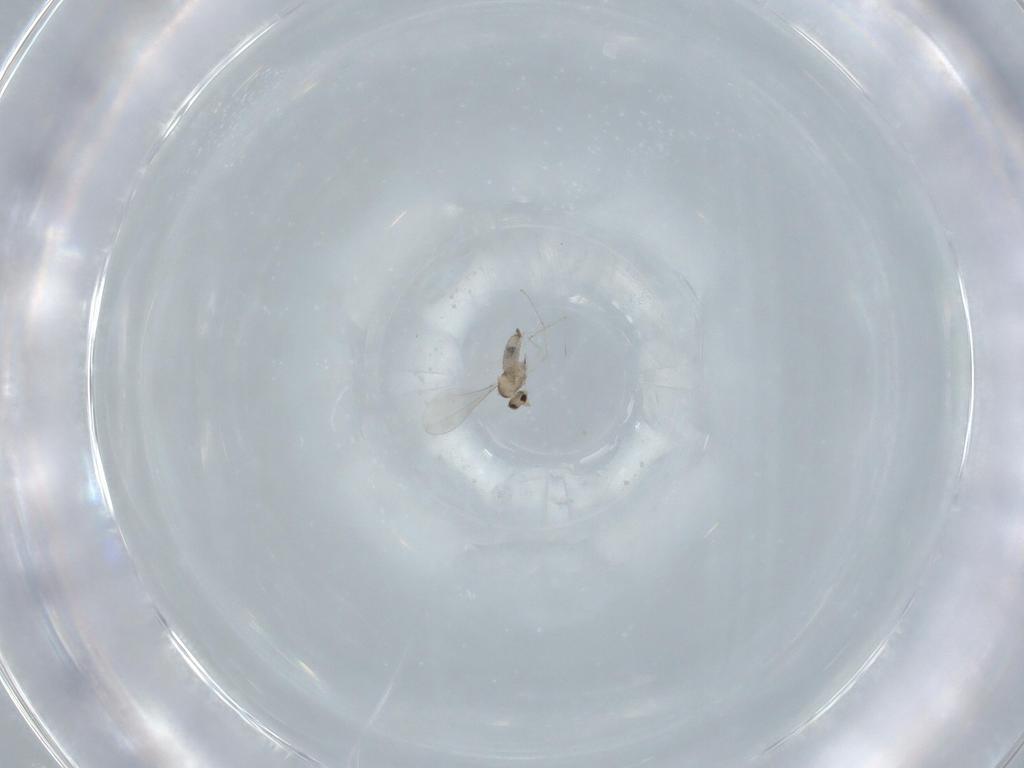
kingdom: Animalia
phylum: Arthropoda
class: Insecta
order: Diptera
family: Cecidomyiidae
